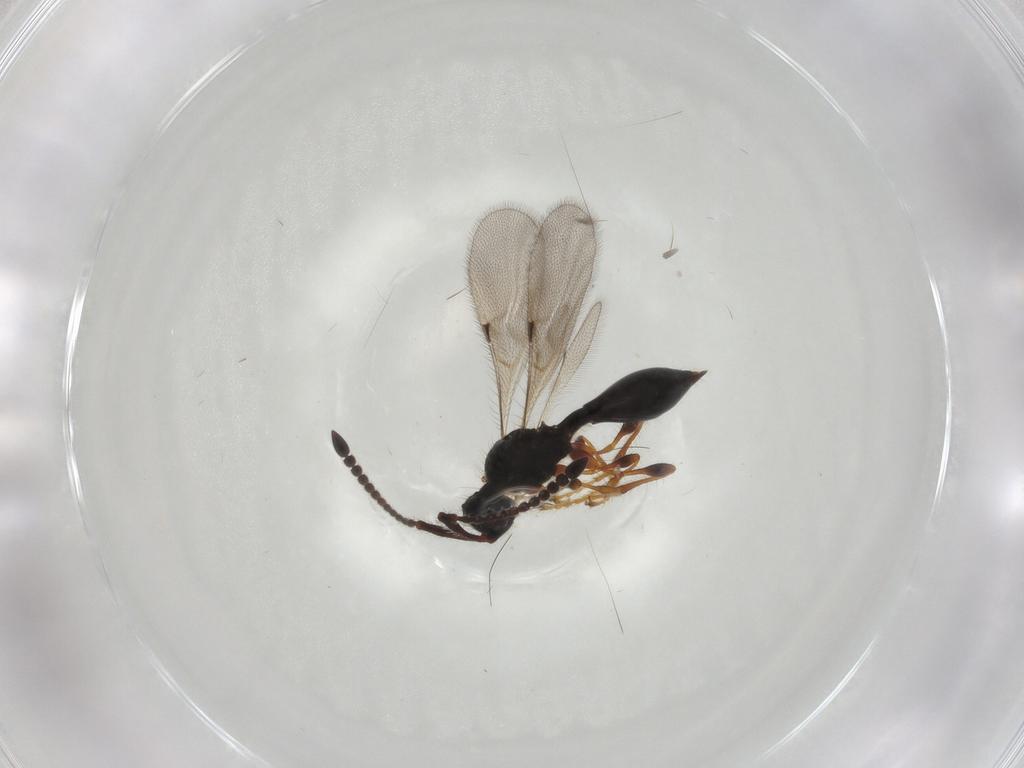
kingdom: Animalia
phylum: Arthropoda
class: Insecta
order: Hymenoptera
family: Diapriidae
